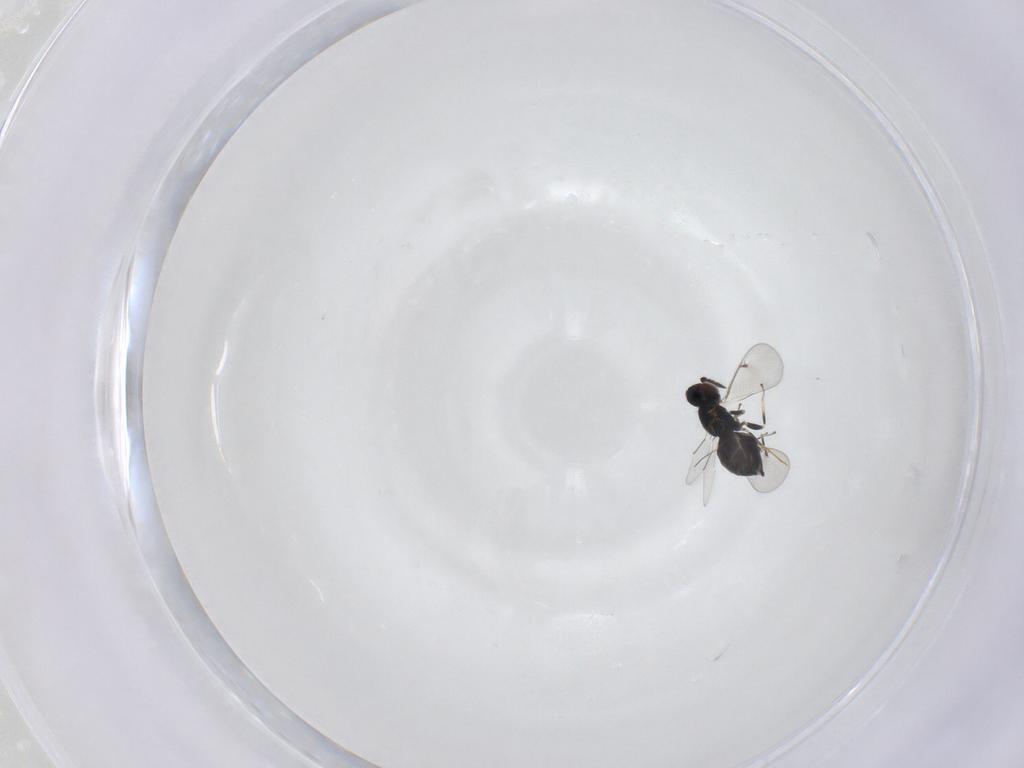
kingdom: Animalia
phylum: Arthropoda
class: Insecta
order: Hymenoptera
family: Eulophidae
